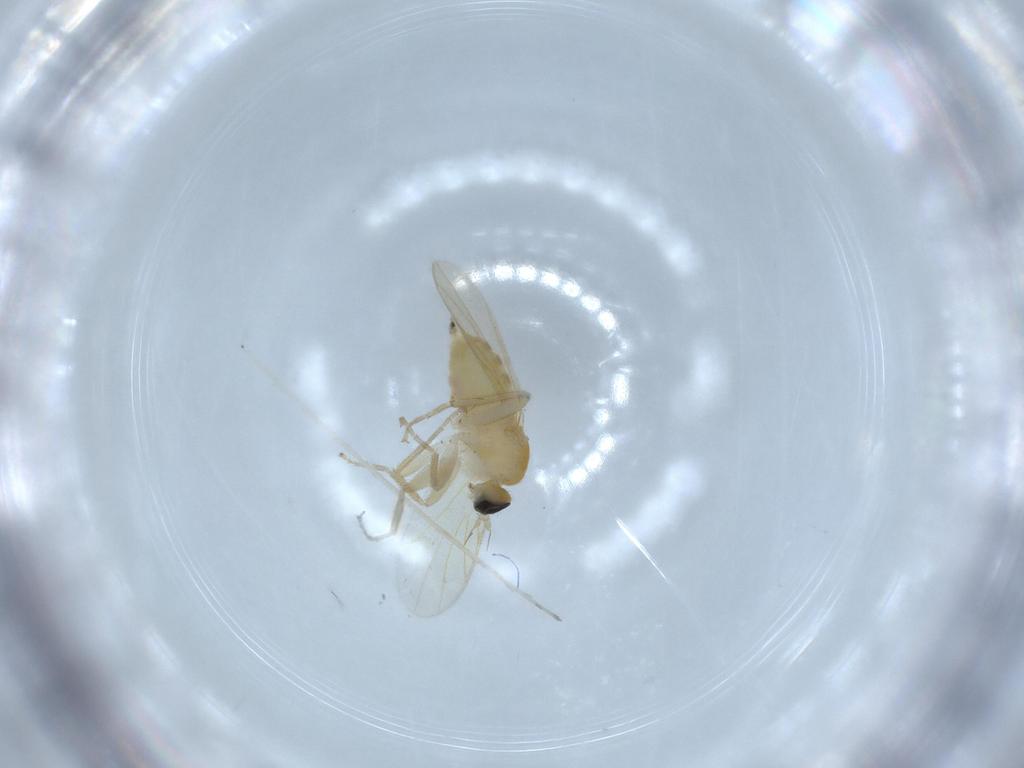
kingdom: Animalia
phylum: Arthropoda
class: Insecta
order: Diptera
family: Hybotidae
